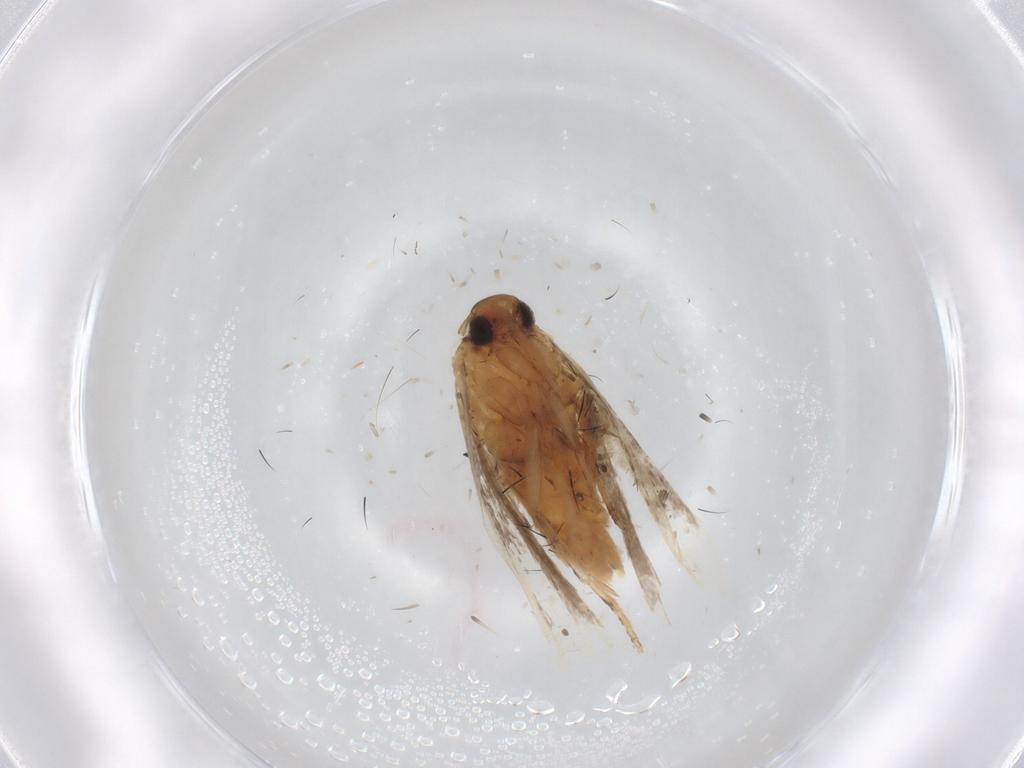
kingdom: Animalia
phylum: Arthropoda
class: Insecta
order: Lepidoptera
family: Gelechiidae
